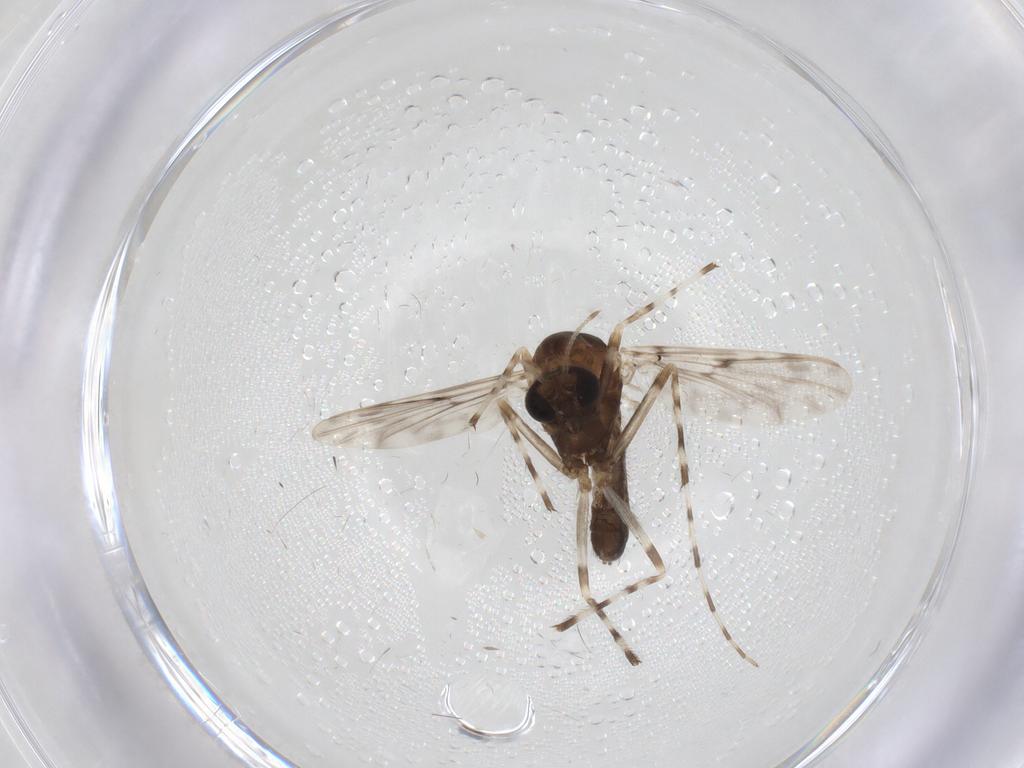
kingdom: Animalia
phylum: Arthropoda
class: Insecta
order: Diptera
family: Chironomidae
